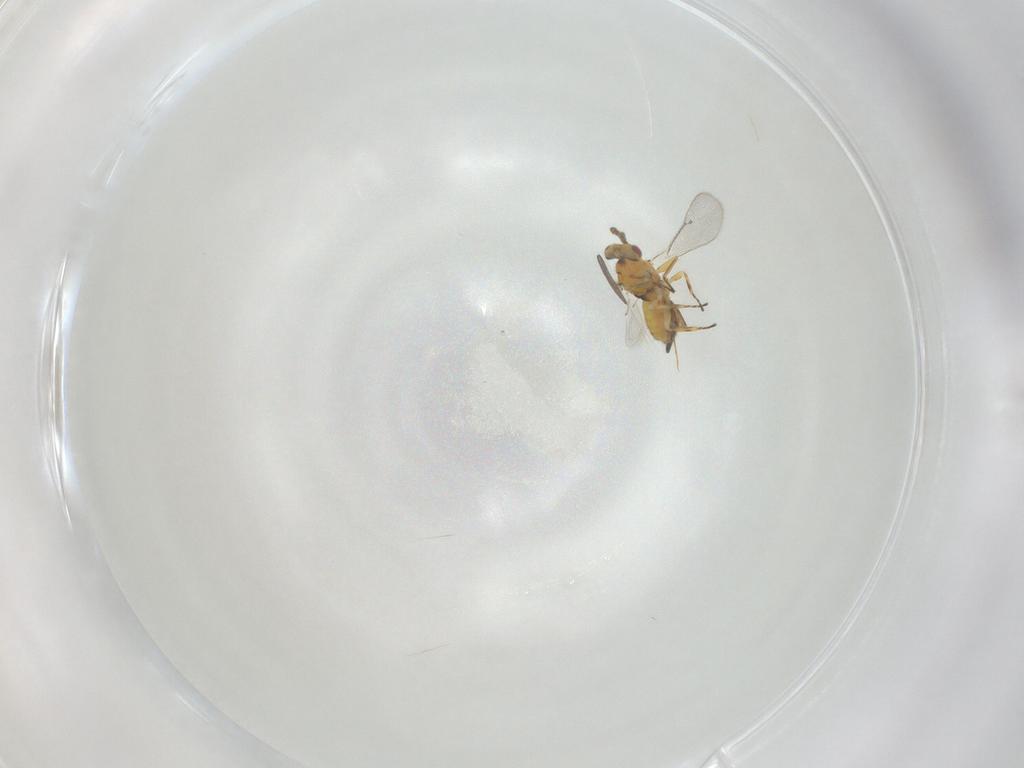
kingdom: Animalia
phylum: Arthropoda
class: Insecta
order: Hymenoptera
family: Eulophidae
